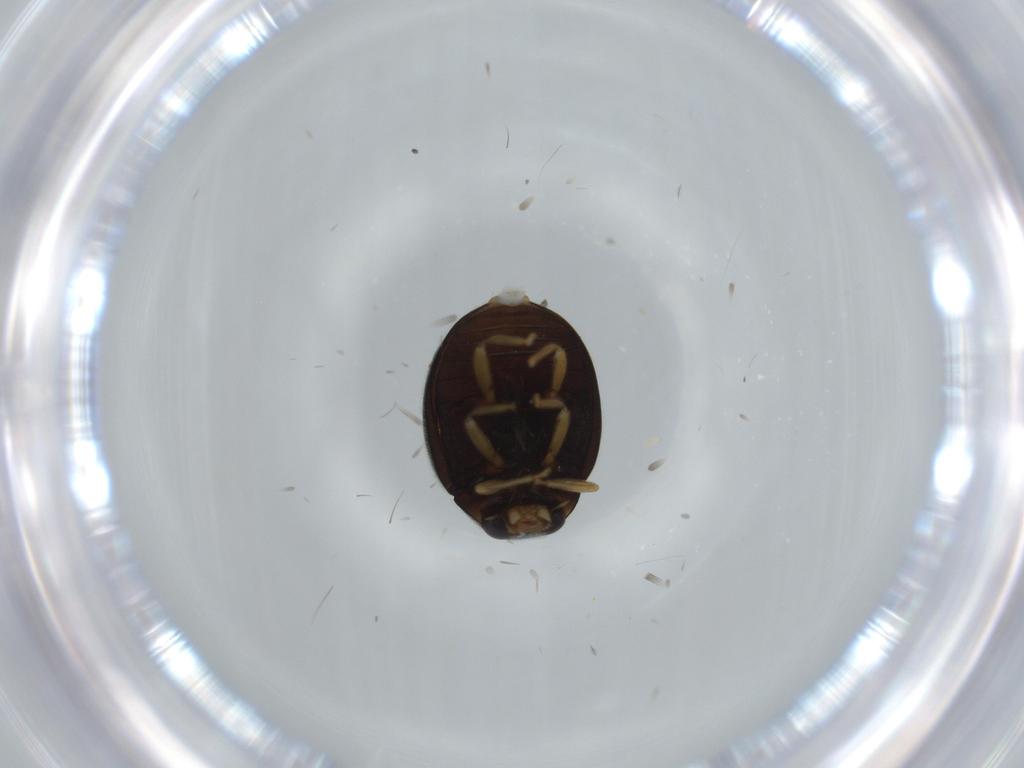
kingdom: Animalia
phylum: Arthropoda
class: Insecta
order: Coleoptera
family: Coccinellidae
